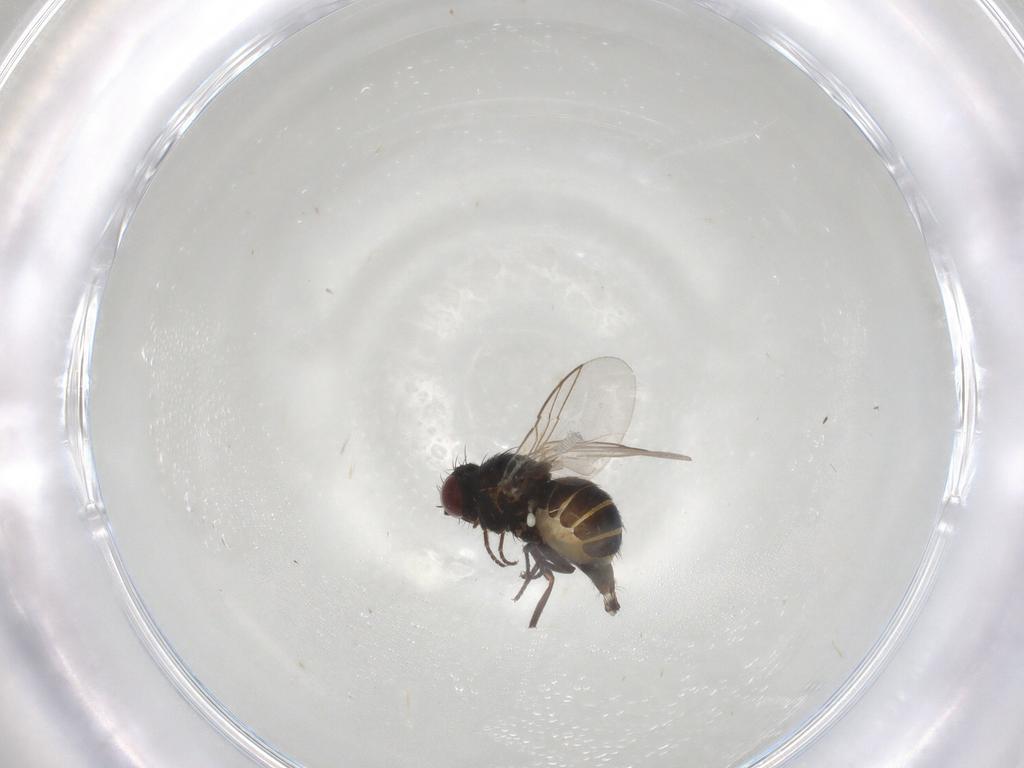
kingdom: Animalia
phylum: Arthropoda
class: Insecta
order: Diptera
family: Agromyzidae
